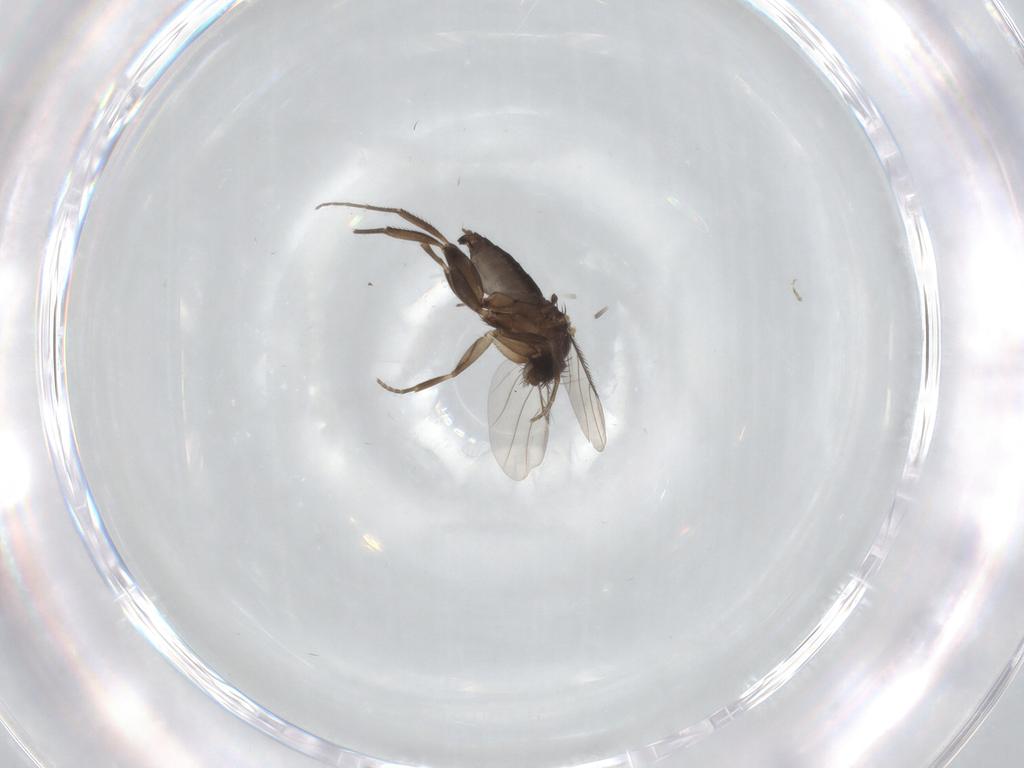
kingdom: Animalia
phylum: Arthropoda
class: Insecta
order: Diptera
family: Phoridae
